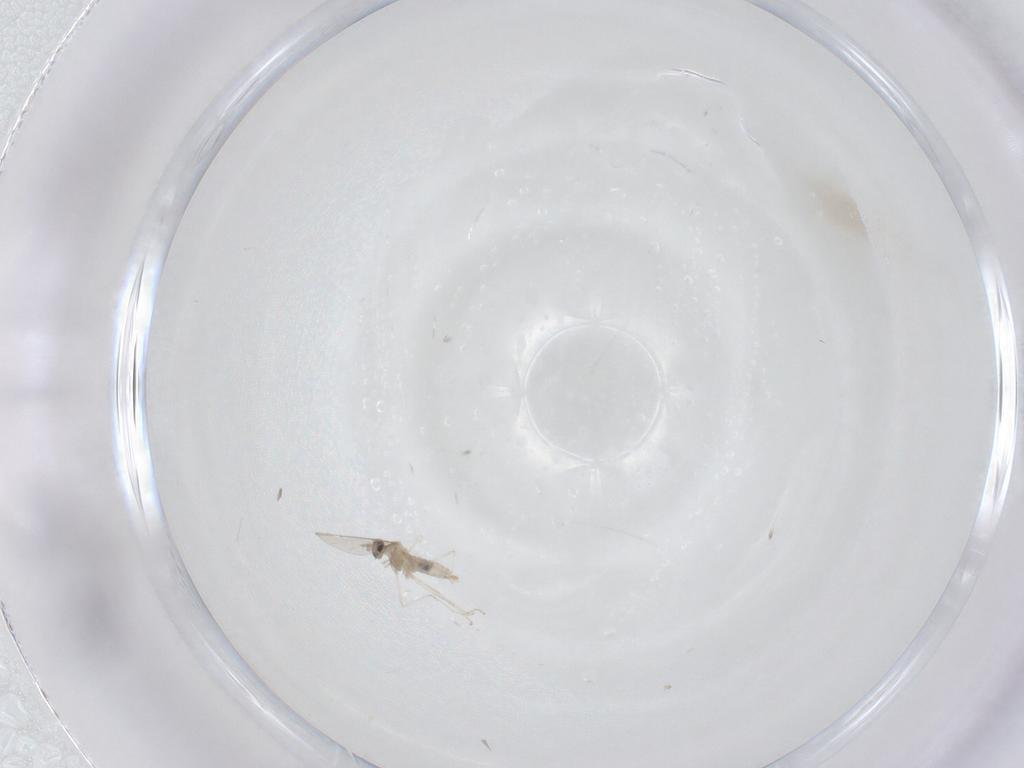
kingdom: Animalia
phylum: Arthropoda
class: Insecta
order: Diptera
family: Cecidomyiidae
